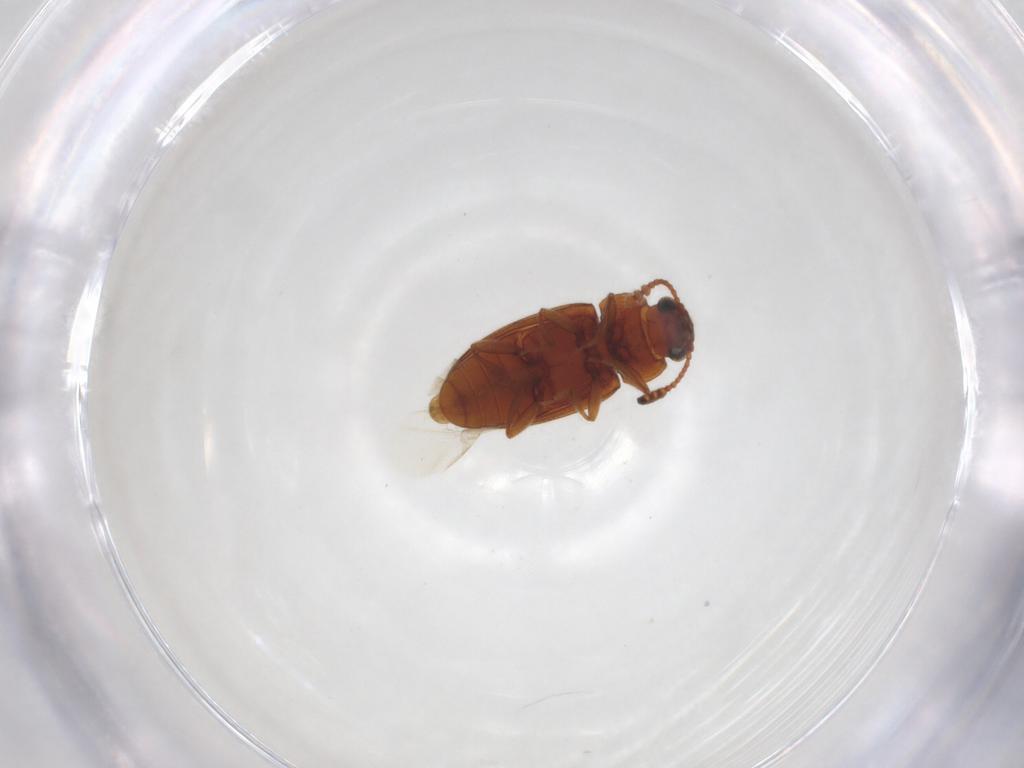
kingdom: Animalia
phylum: Arthropoda
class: Insecta
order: Coleoptera
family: Erotylidae
